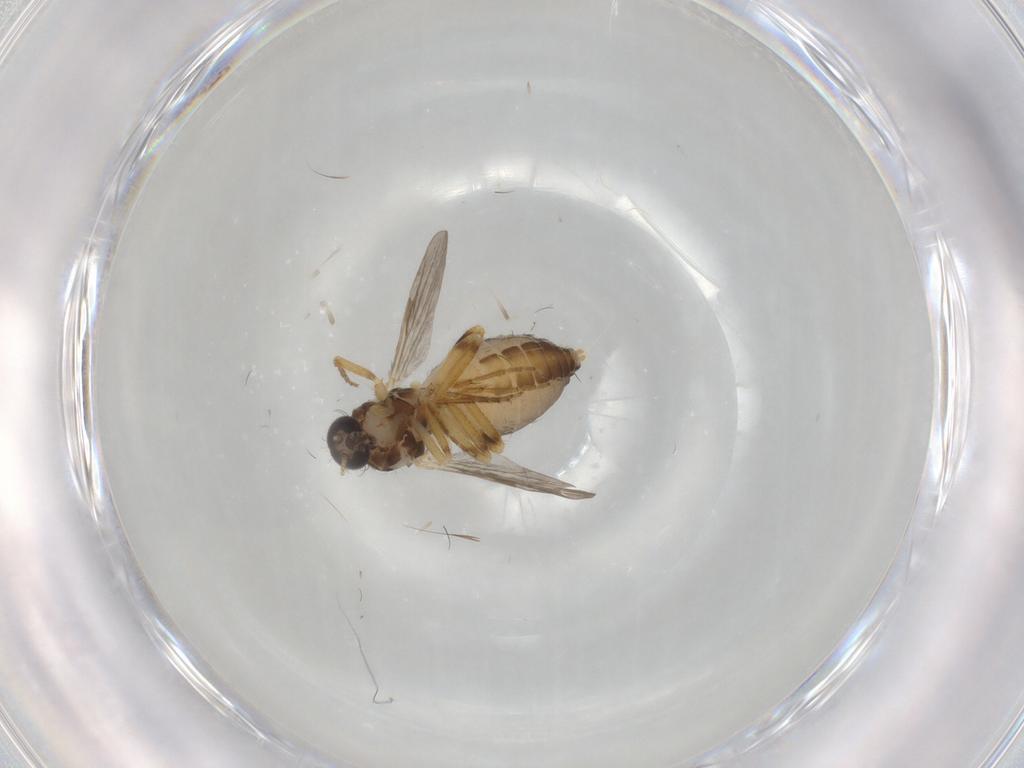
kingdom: Animalia
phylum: Arthropoda
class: Insecta
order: Diptera
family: Ceratopogonidae
